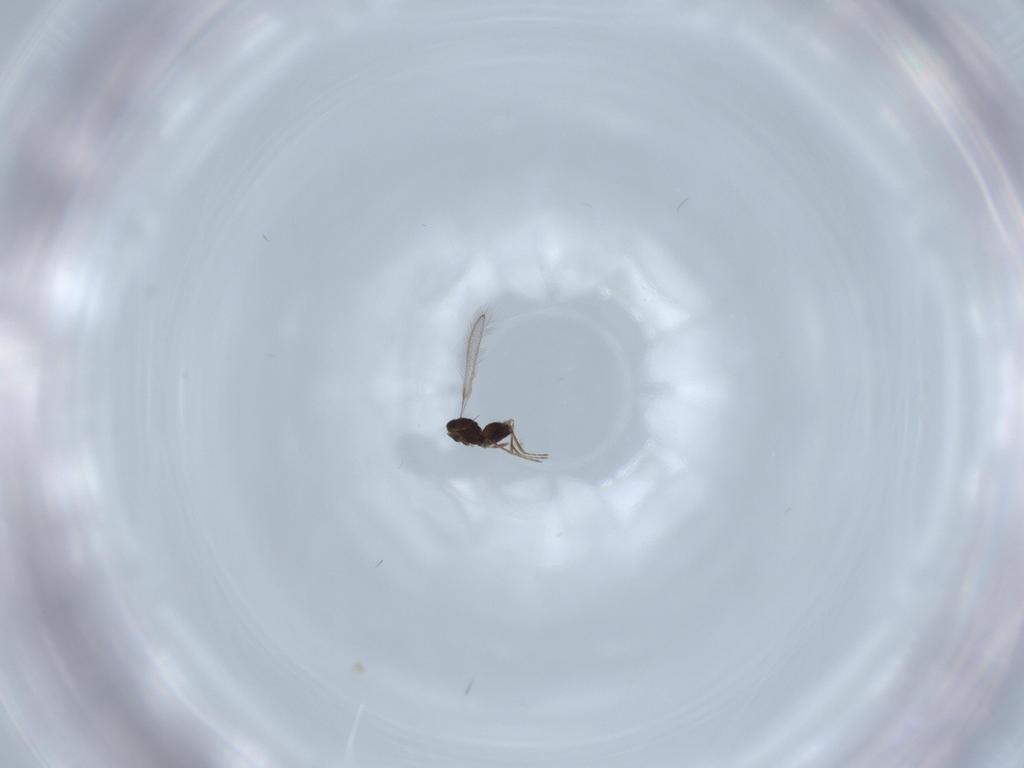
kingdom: Animalia
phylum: Arthropoda
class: Insecta
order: Hymenoptera
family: Mymaridae
